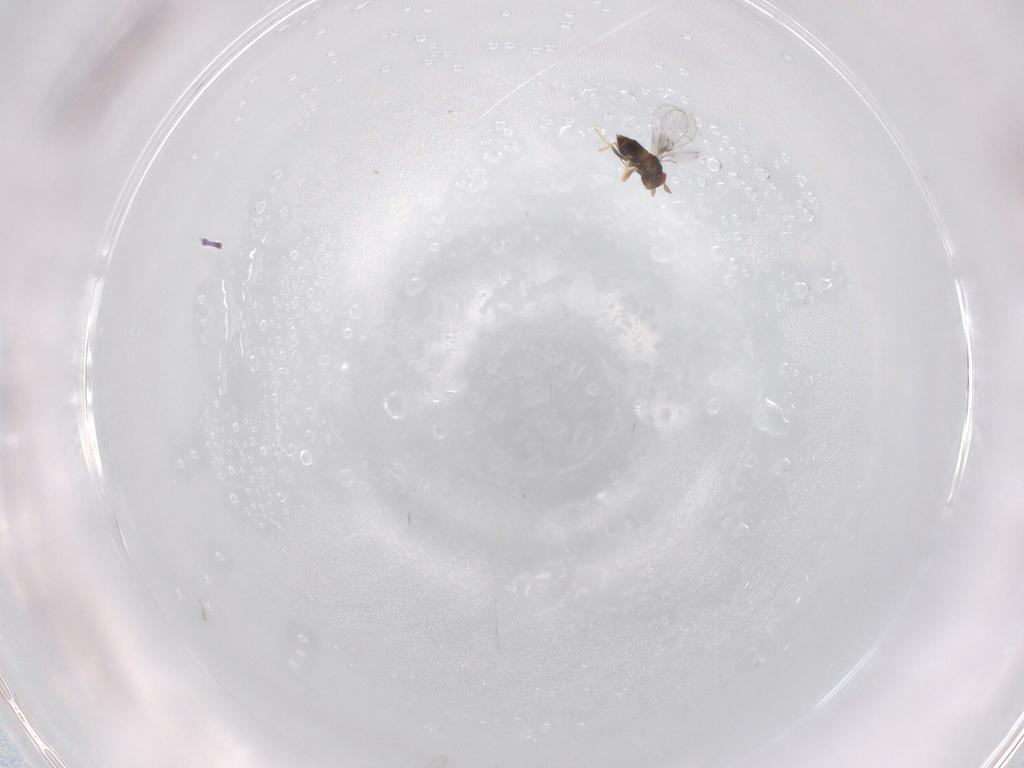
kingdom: Animalia
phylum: Arthropoda
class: Insecta
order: Hymenoptera
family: Trichogrammatidae
